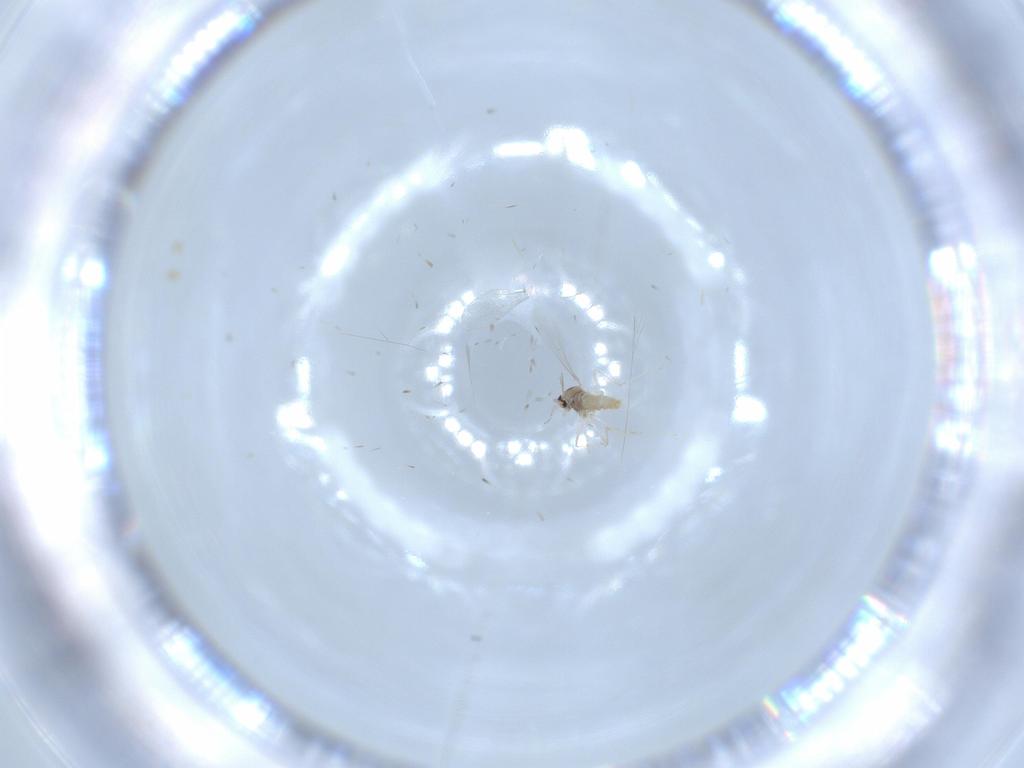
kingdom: Animalia
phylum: Arthropoda
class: Insecta
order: Diptera
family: Cecidomyiidae
